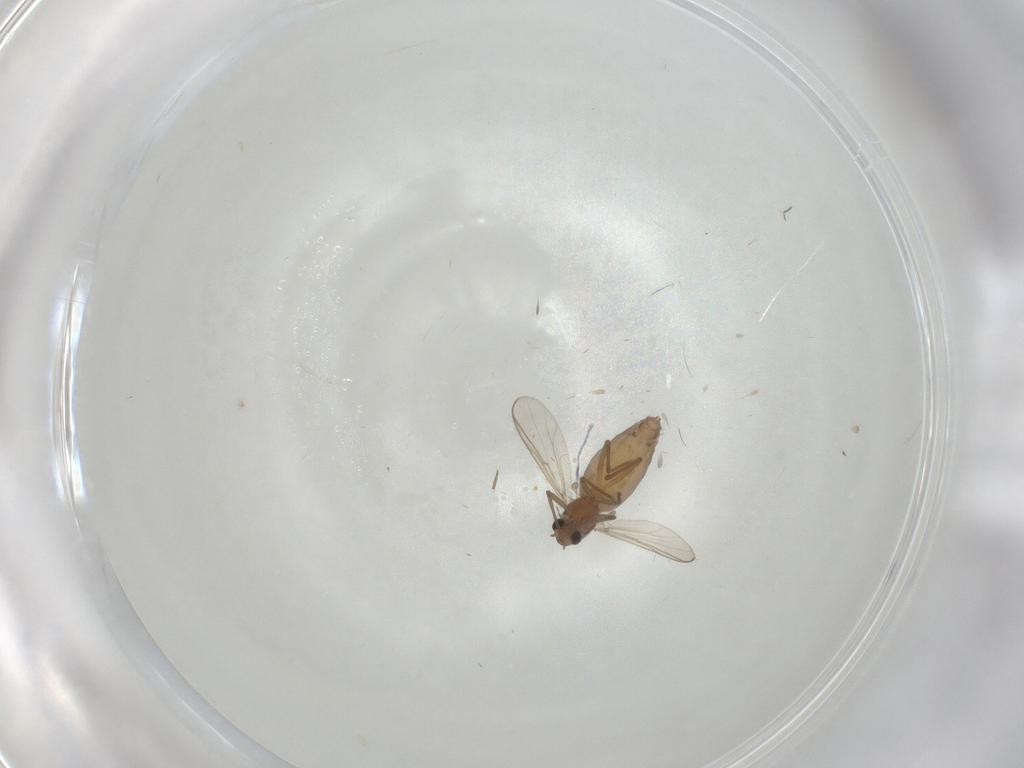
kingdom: Animalia
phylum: Arthropoda
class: Insecta
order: Diptera
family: Chironomidae
